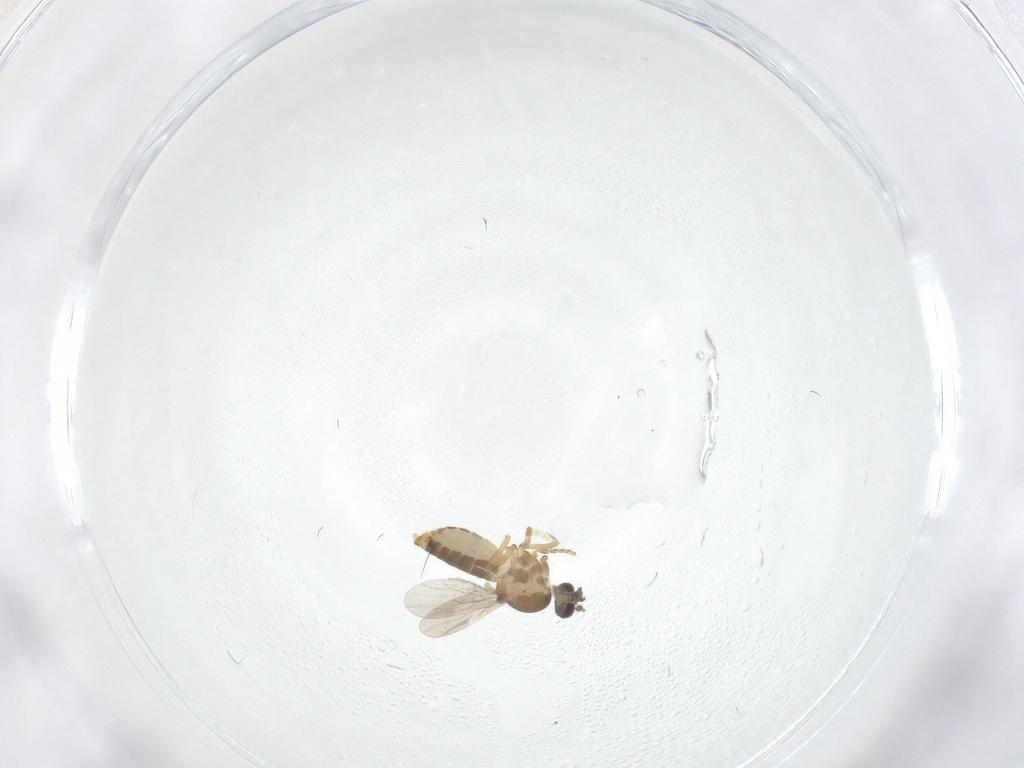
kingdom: Animalia
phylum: Arthropoda
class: Insecta
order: Diptera
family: Ceratopogonidae
